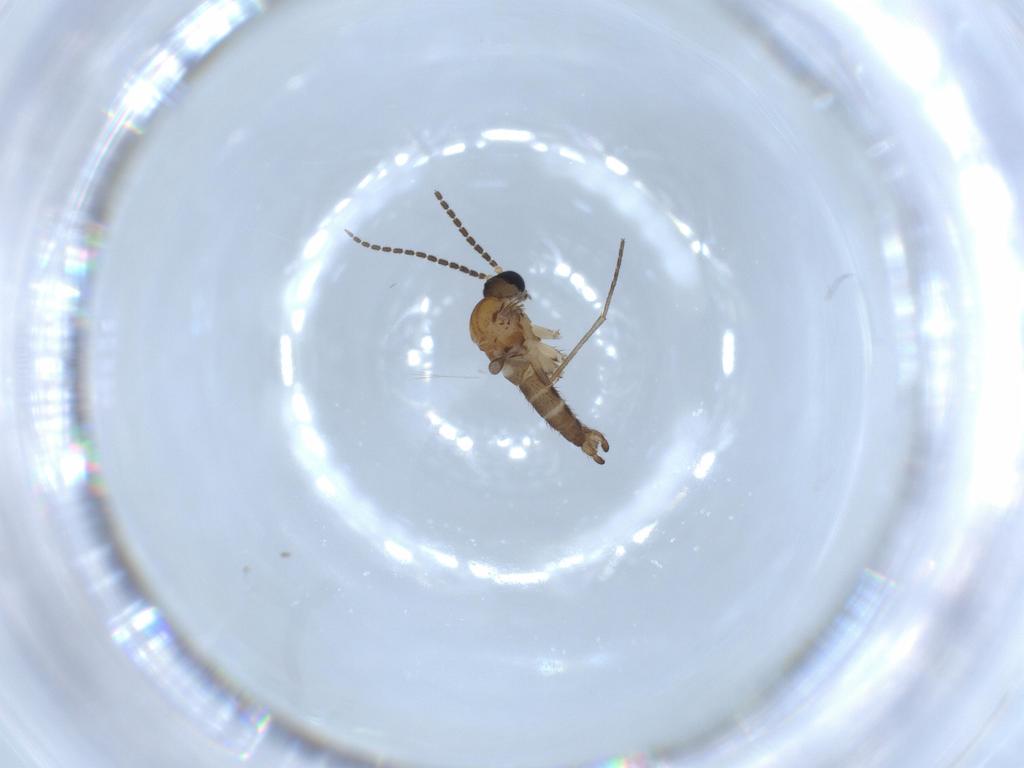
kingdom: Animalia
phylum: Arthropoda
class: Insecta
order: Diptera
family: Sciaridae
